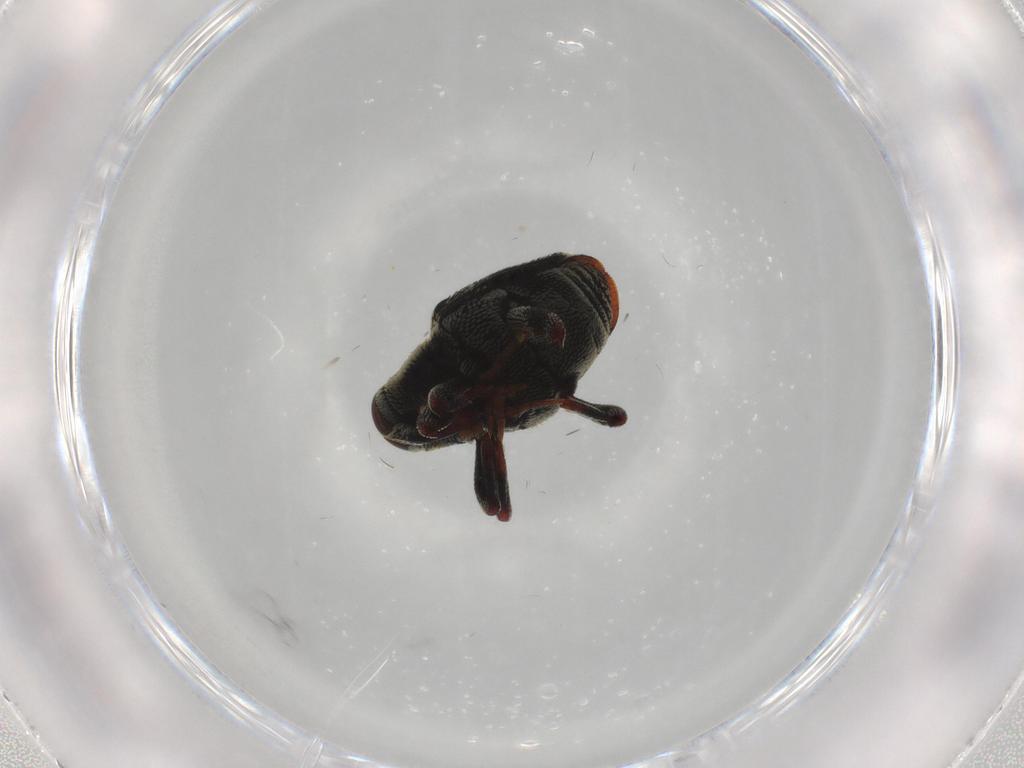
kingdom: Animalia
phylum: Arthropoda
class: Insecta
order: Coleoptera
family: Curculionidae
